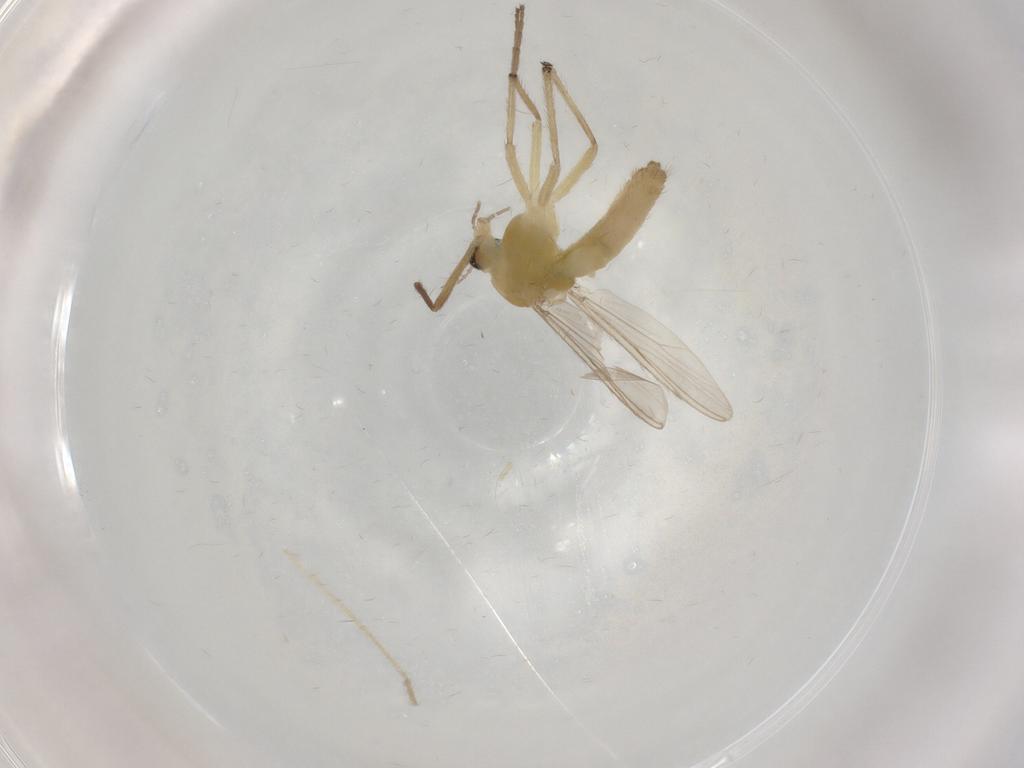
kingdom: Animalia
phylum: Arthropoda
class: Insecta
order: Diptera
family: Chironomidae
